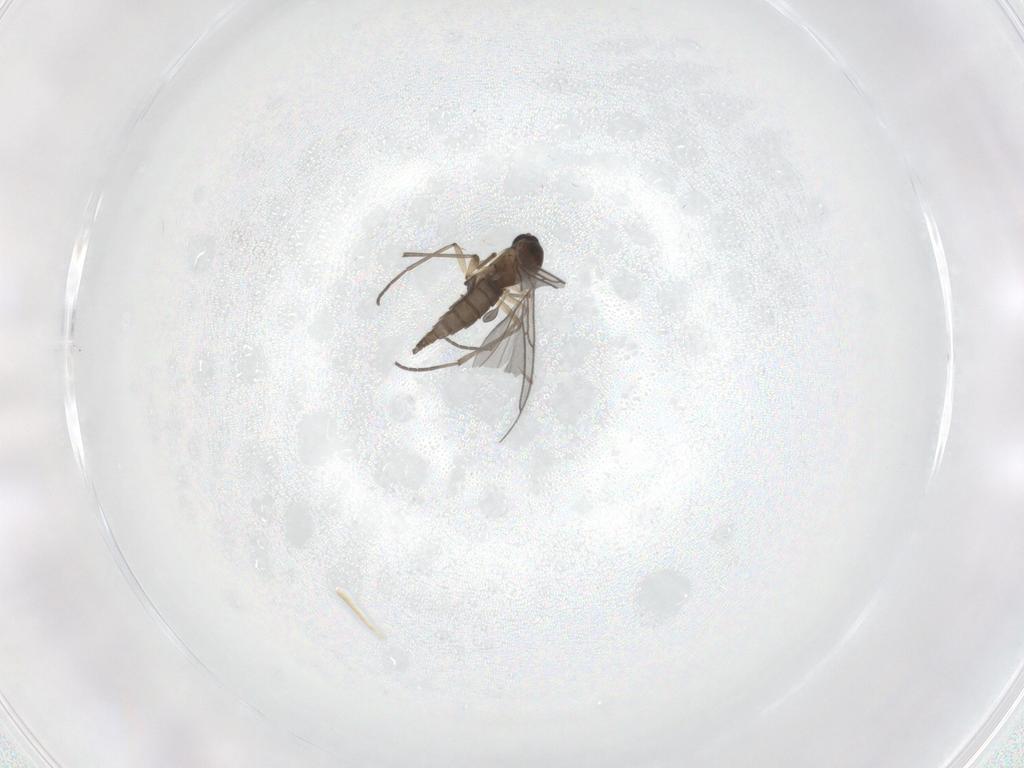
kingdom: Animalia
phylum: Arthropoda
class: Insecta
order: Diptera
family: Sciaridae
